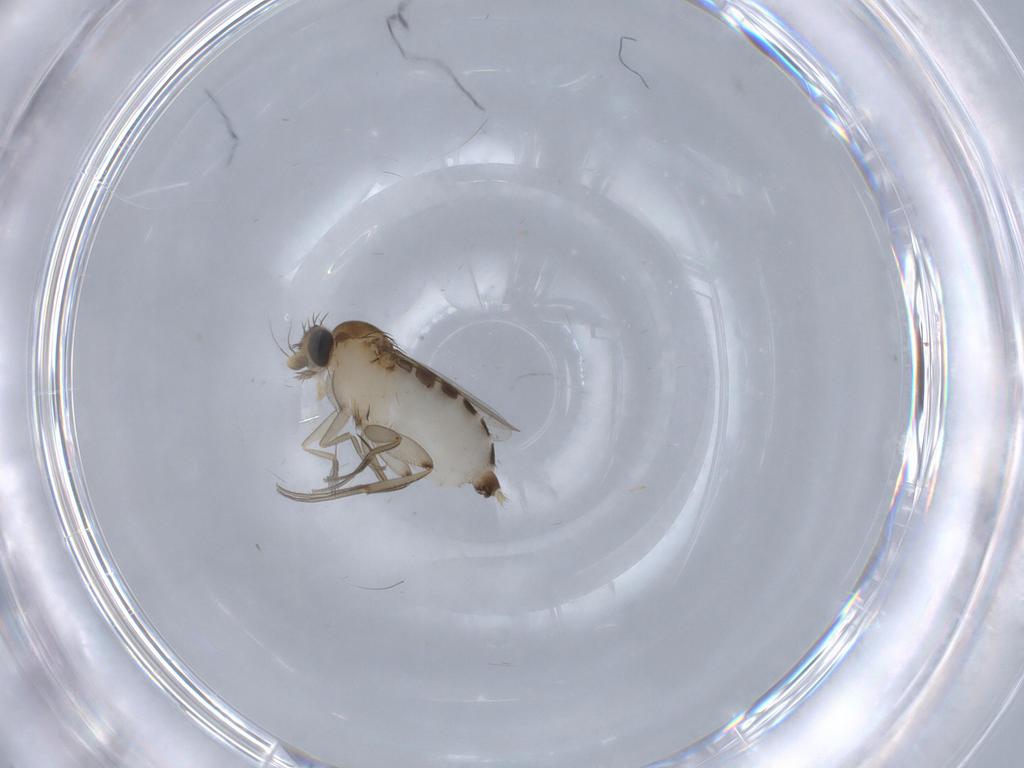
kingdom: Animalia
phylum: Arthropoda
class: Insecta
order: Diptera
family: Phoridae
